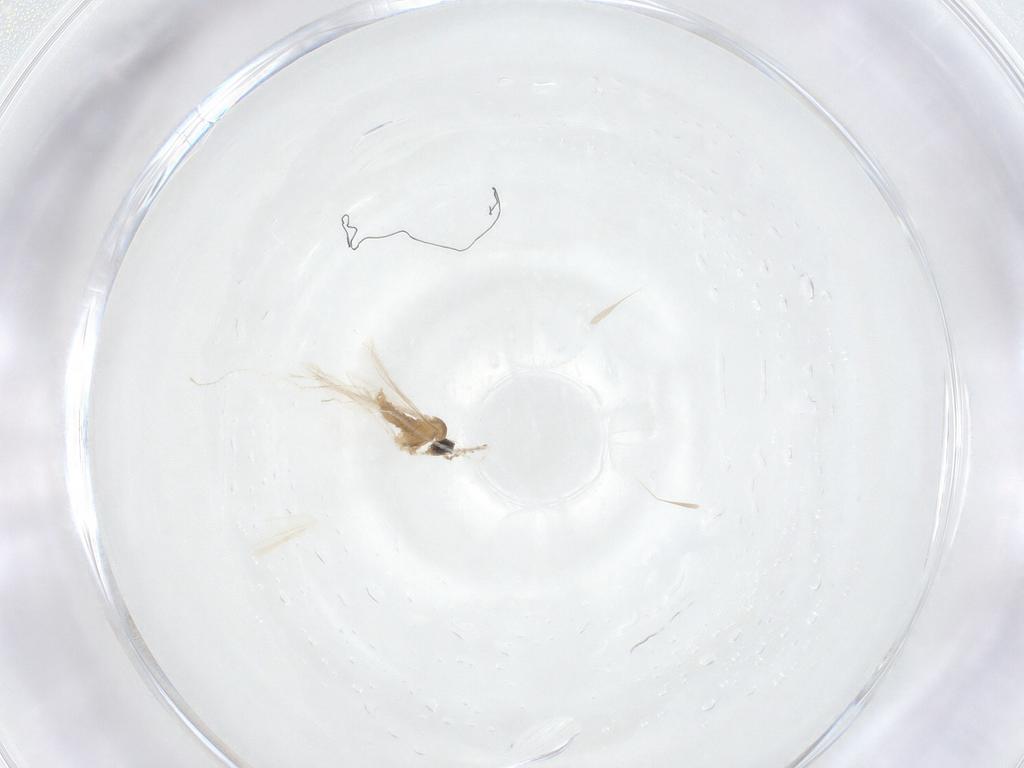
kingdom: Animalia
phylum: Arthropoda
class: Insecta
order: Diptera
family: Cecidomyiidae
